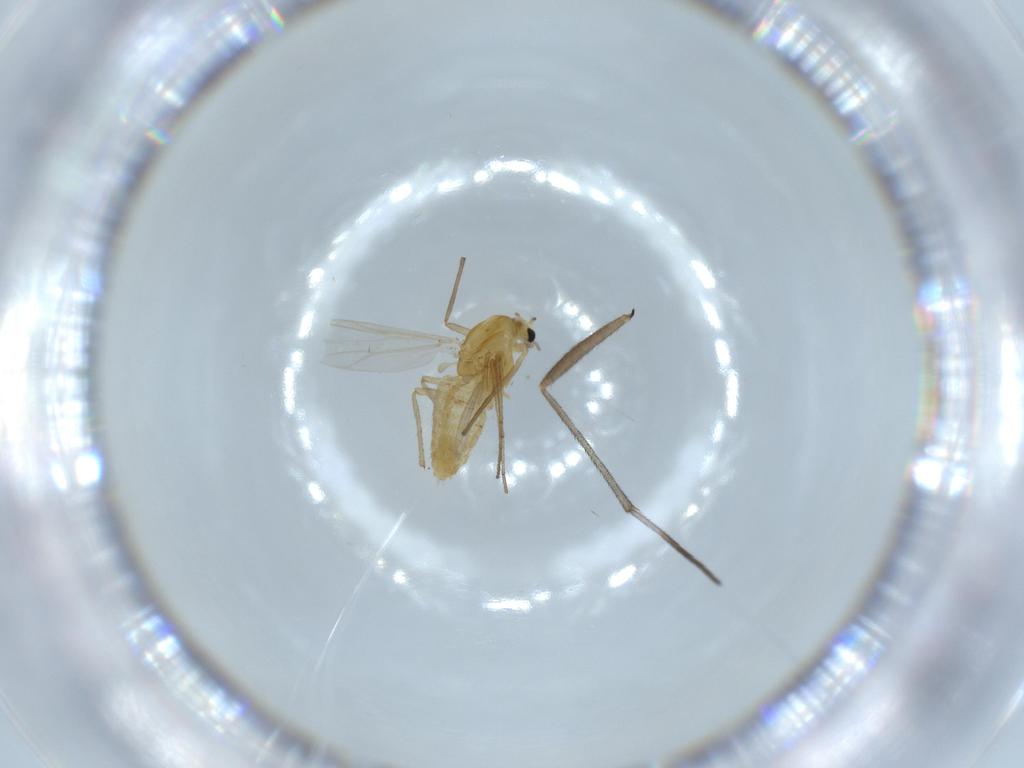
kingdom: Animalia
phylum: Arthropoda
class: Insecta
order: Diptera
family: Chironomidae
